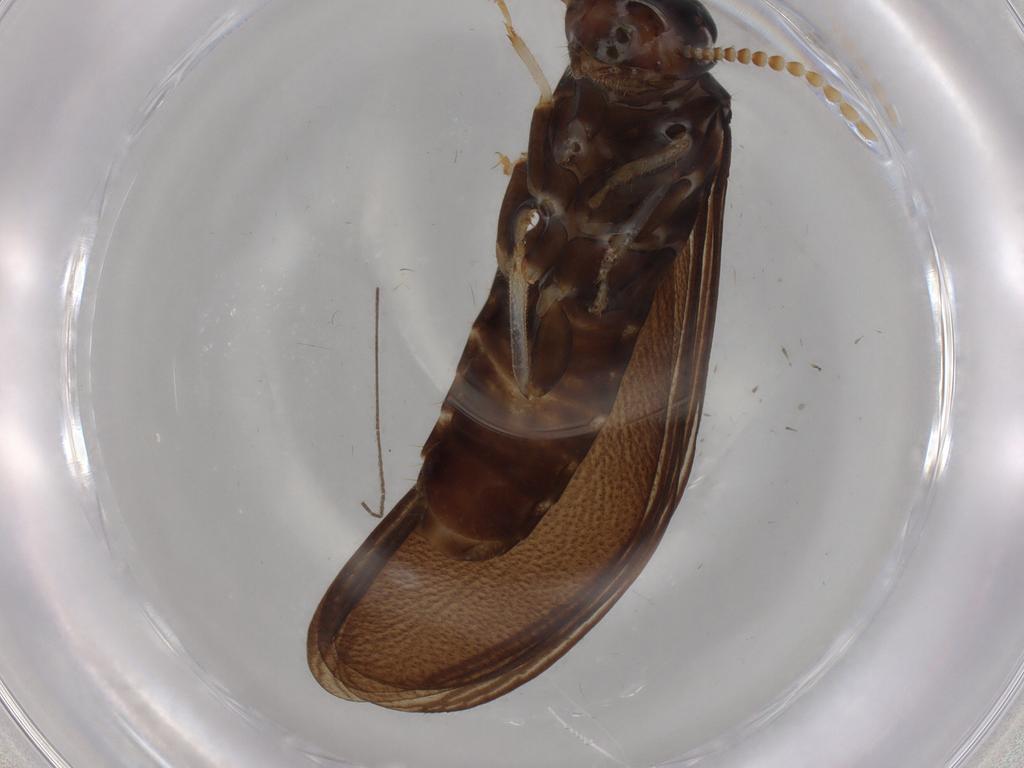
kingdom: Animalia
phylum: Arthropoda
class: Insecta
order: Blattodea
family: Kalotermitidae
